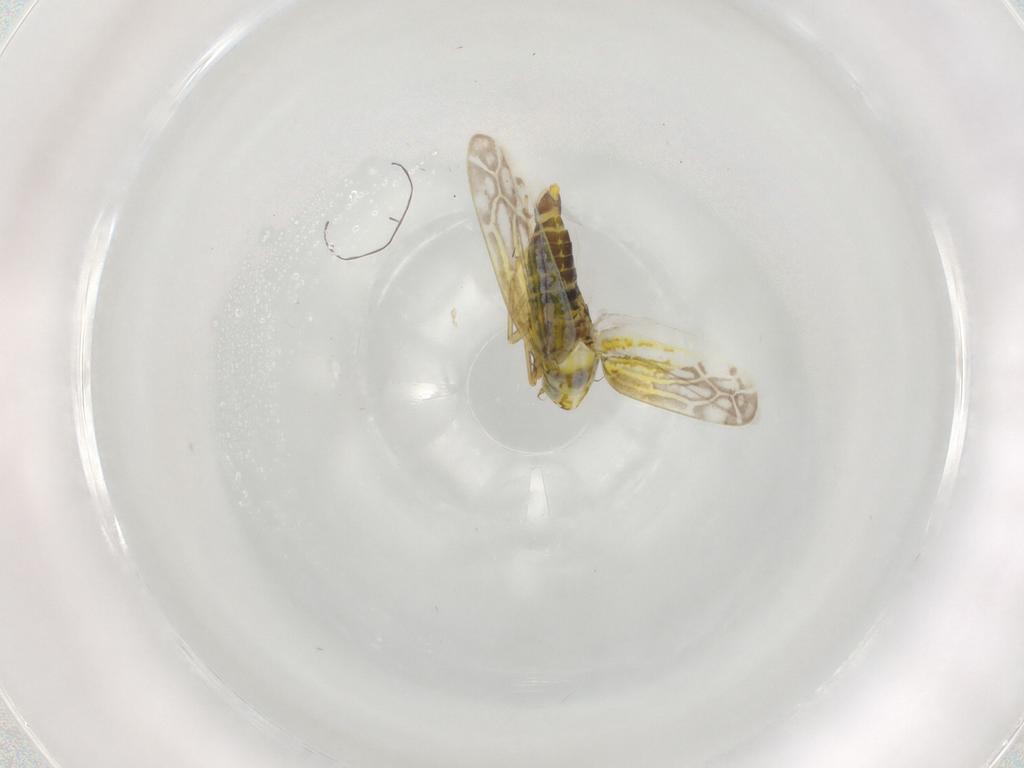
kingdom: Animalia
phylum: Arthropoda
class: Insecta
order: Hemiptera
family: Cicadellidae
